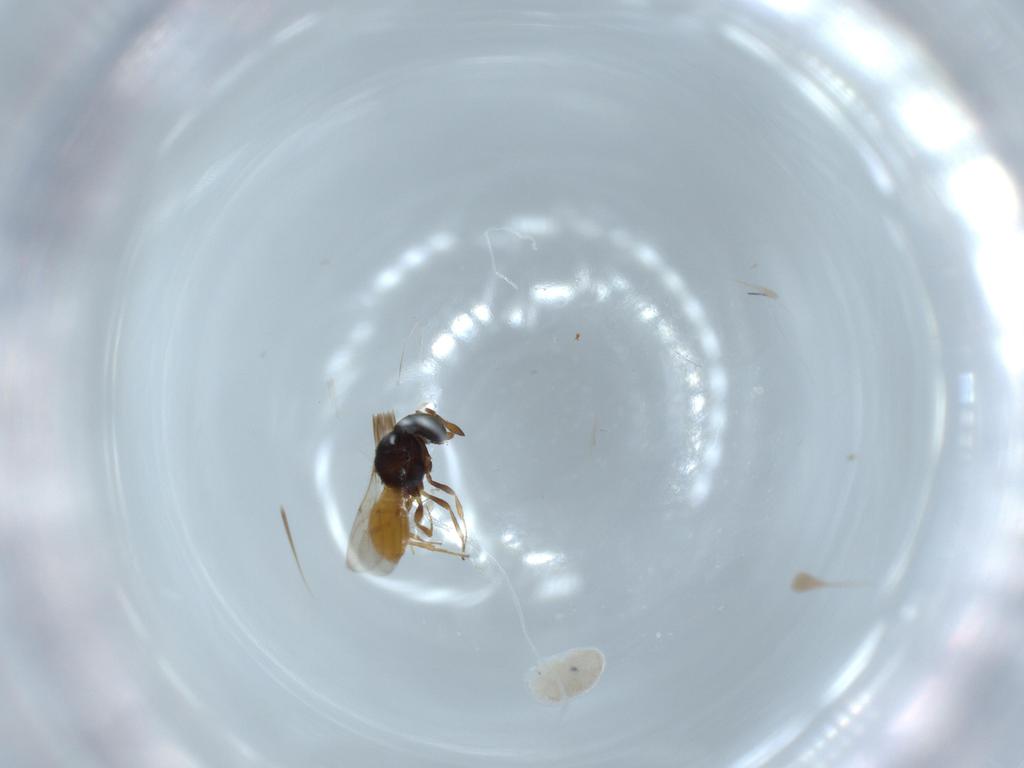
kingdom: Animalia
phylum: Arthropoda
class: Insecta
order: Hymenoptera
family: Scelionidae
